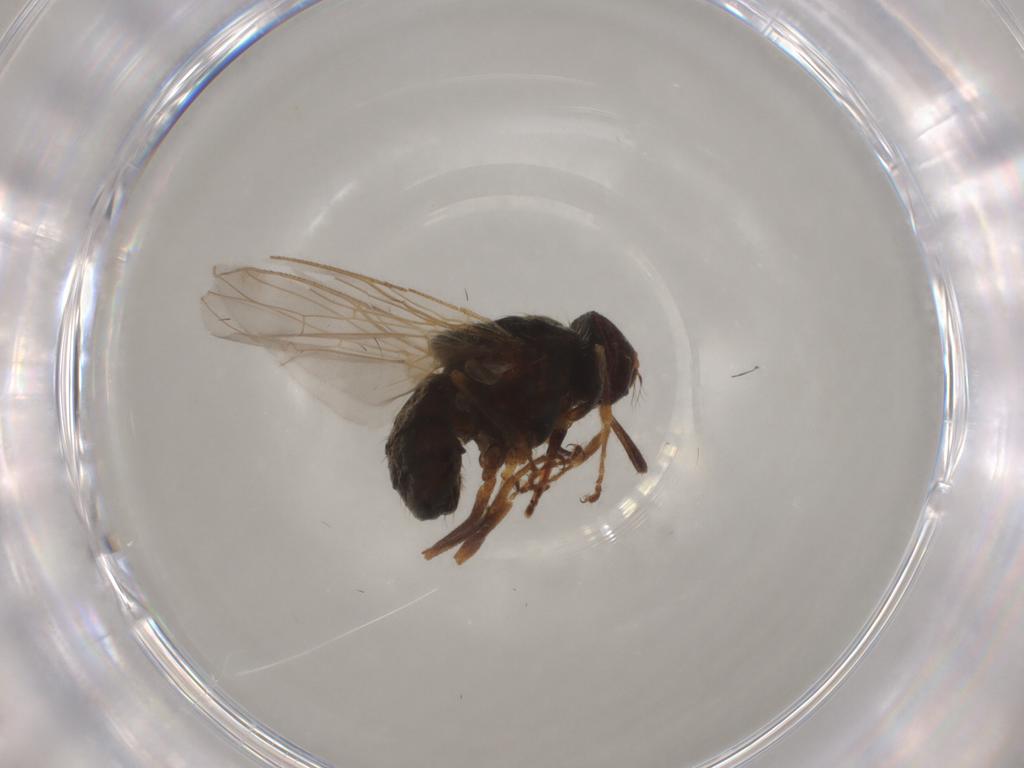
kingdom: Animalia
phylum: Arthropoda
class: Insecta
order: Diptera
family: Muscidae
